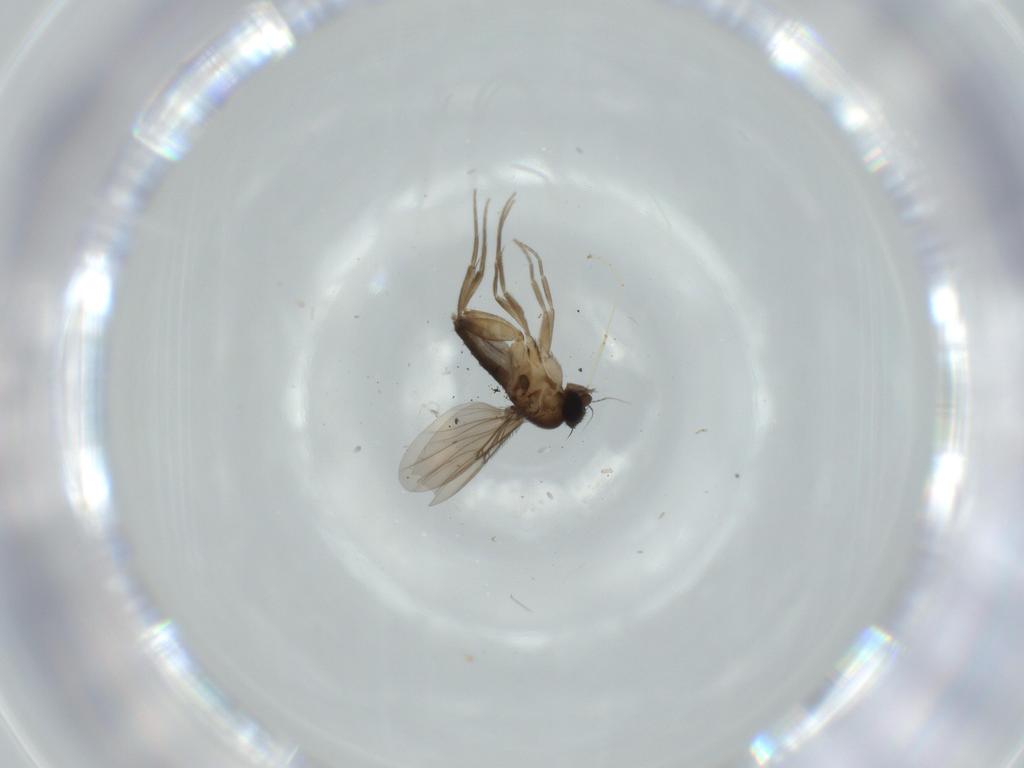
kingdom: Animalia
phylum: Arthropoda
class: Insecta
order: Diptera
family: Phoridae
